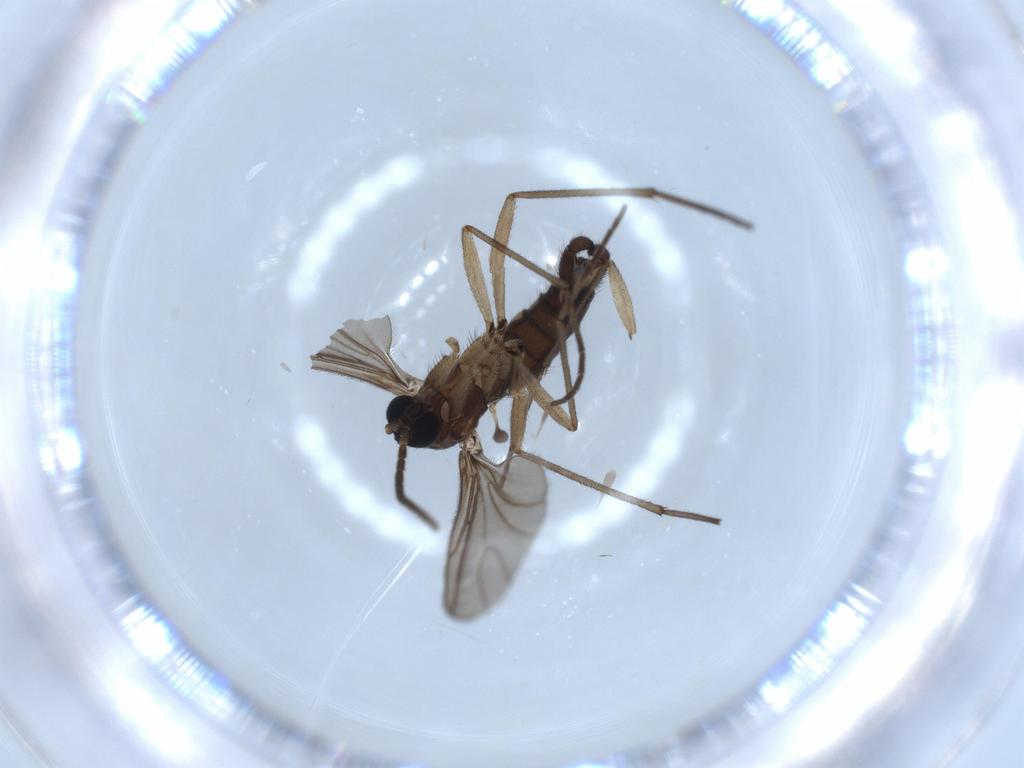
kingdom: Animalia
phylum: Arthropoda
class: Insecta
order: Diptera
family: Sciaridae
